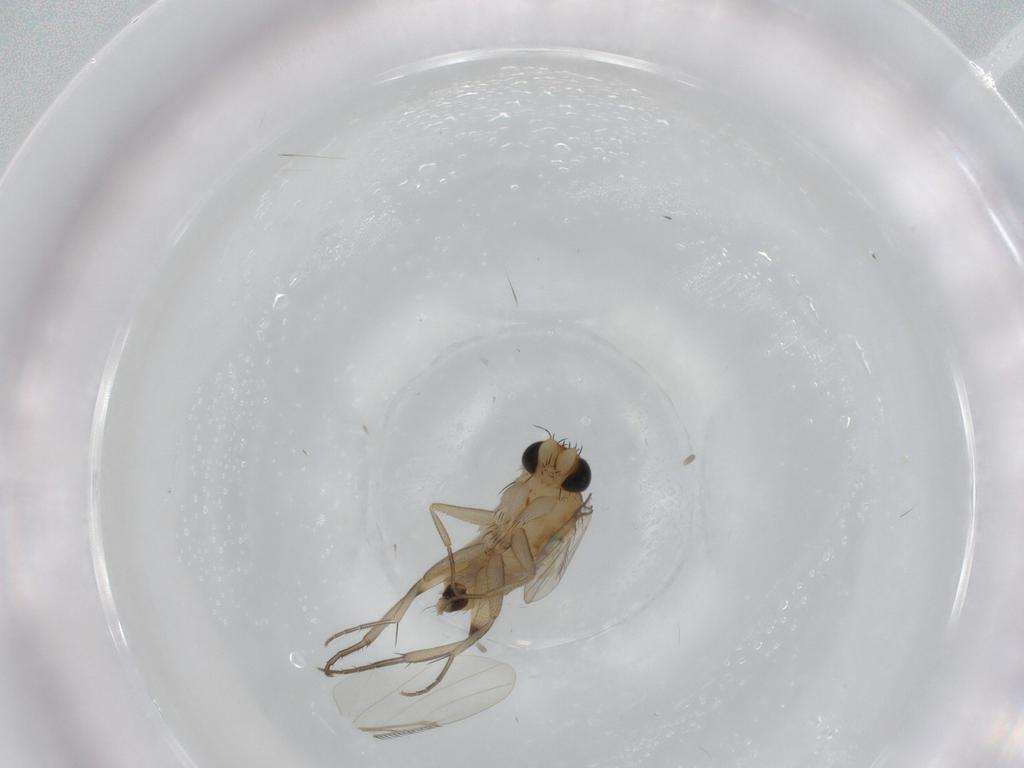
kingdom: Animalia
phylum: Arthropoda
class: Insecta
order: Diptera
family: Phoridae
